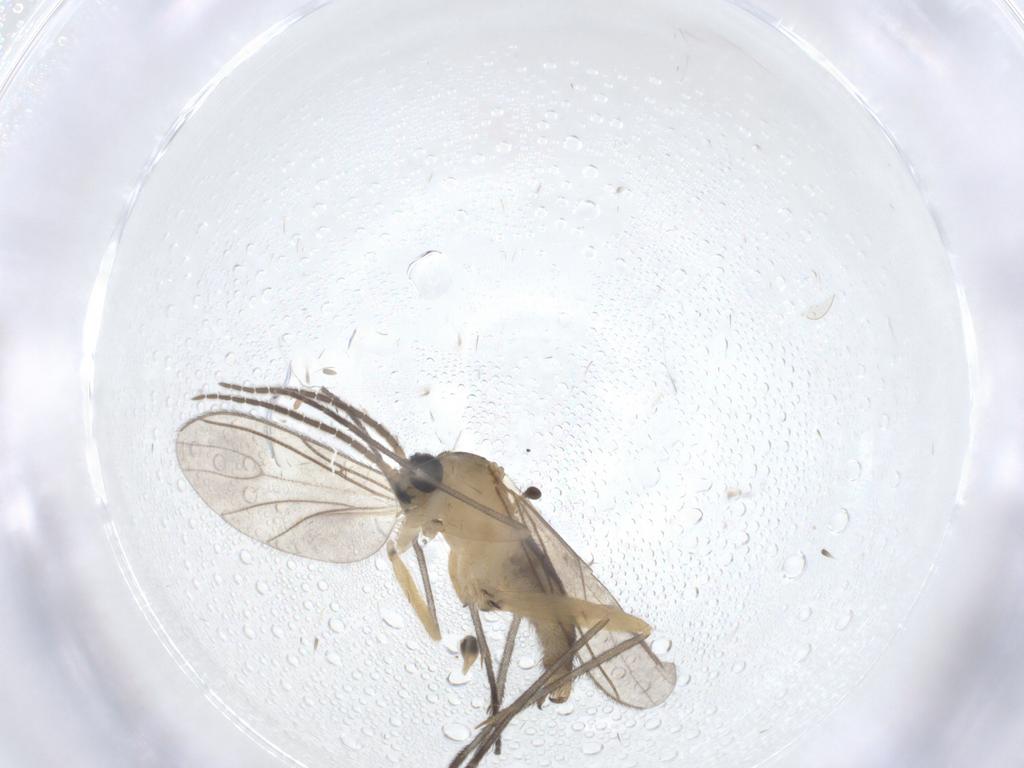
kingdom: Animalia
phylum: Arthropoda
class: Insecta
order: Diptera
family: Sciaridae
